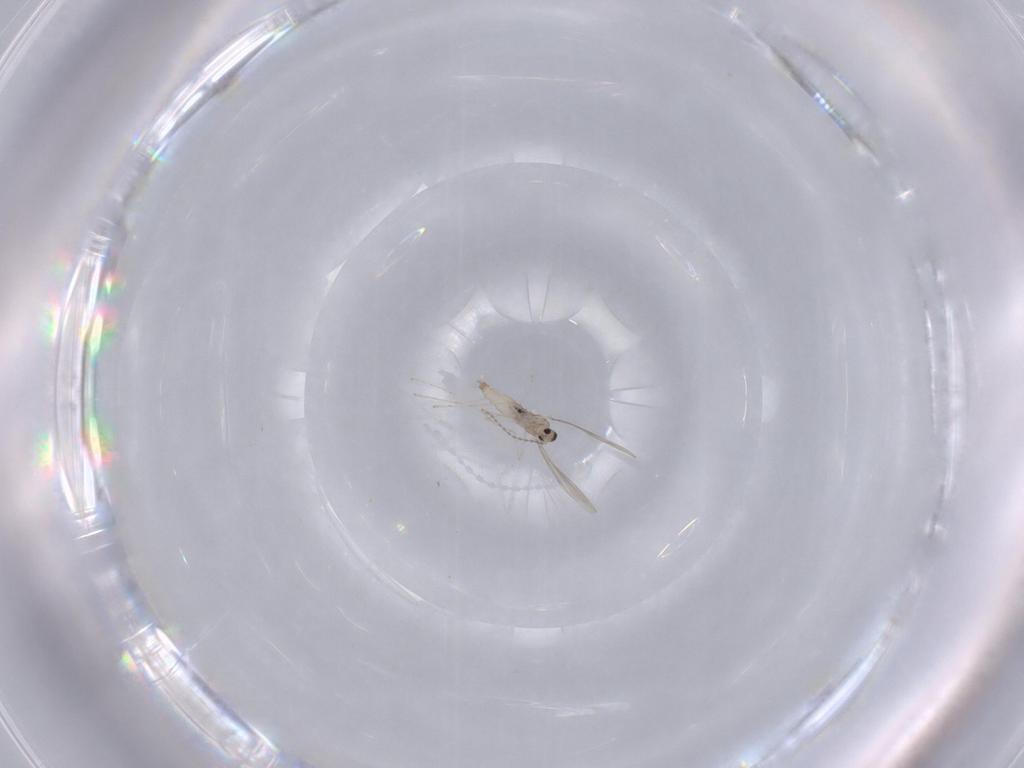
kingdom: Animalia
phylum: Arthropoda
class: Insecta
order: Diptera
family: Cecidomyiidae
